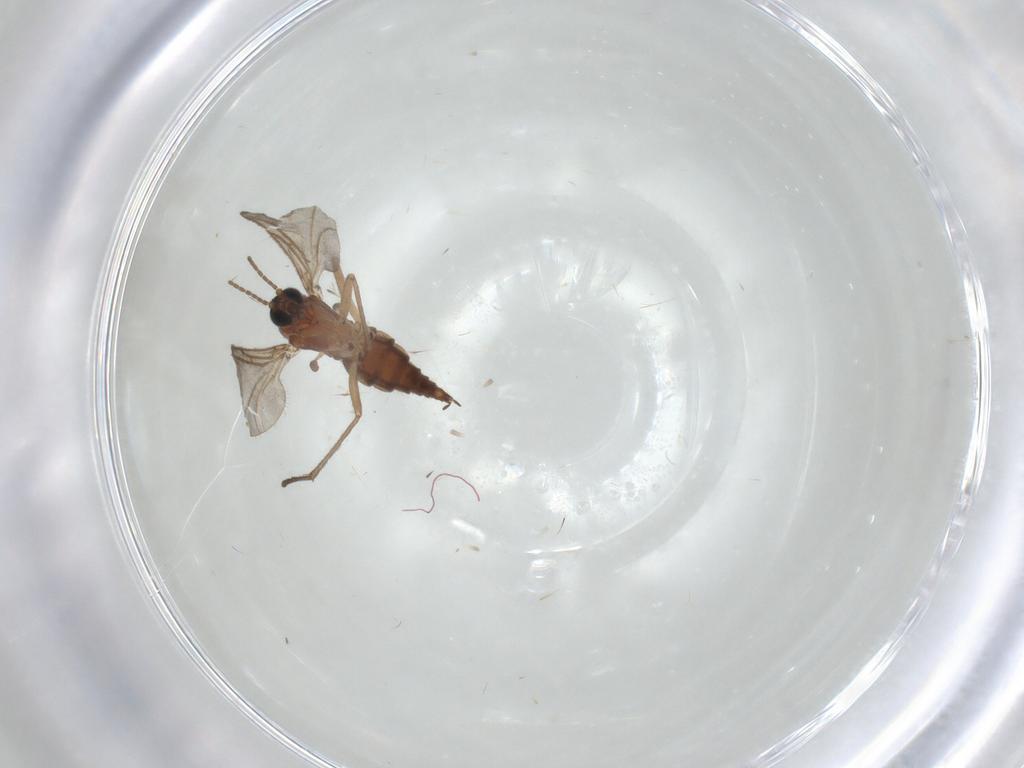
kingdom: Animalia
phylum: Arthropoda
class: Insecta
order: Diptera
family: Sciaridae
